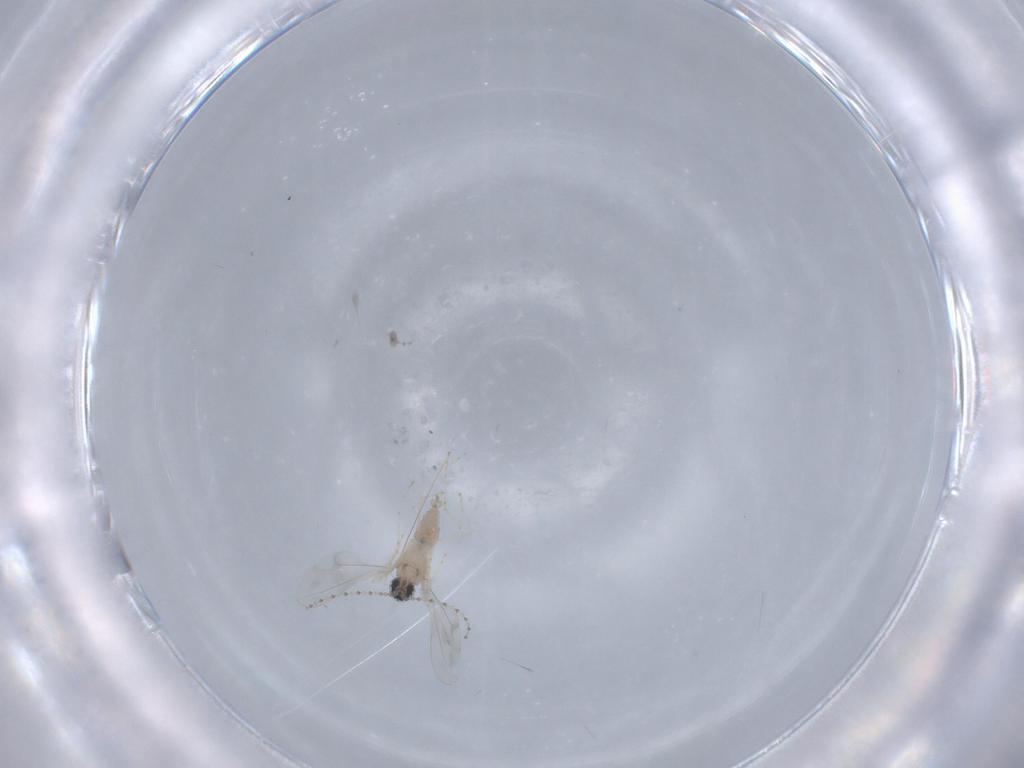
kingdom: Animalia
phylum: Arthropoda
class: Insecta
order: Diptera
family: Cecidomyiidae
